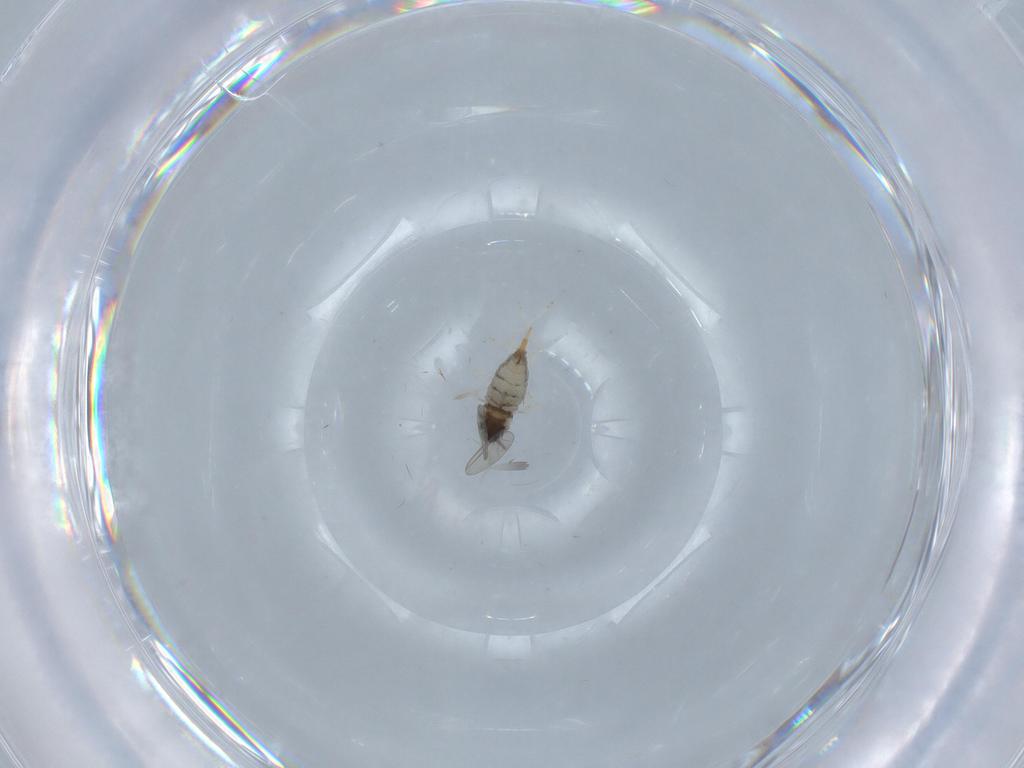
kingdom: Animalia
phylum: Arthropoda
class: Insecta
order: Diptera
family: Cecidomyiidae
